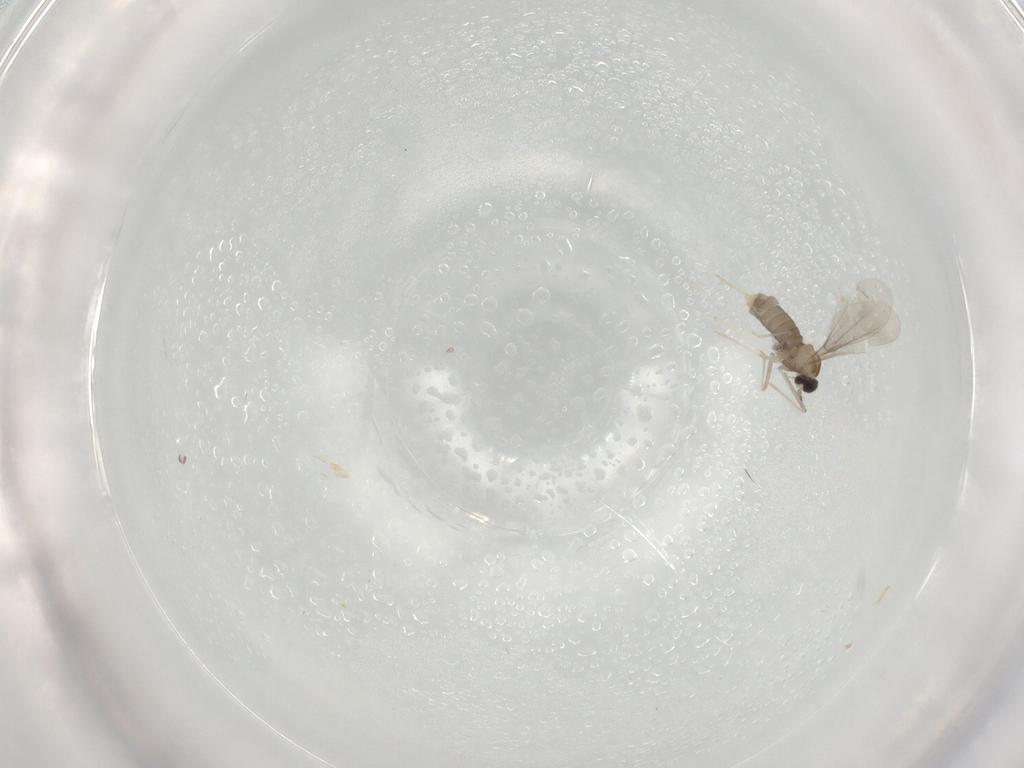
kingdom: Animalia
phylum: Arthropoda
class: Insecta
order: Diptera
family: Cecidomyiidae
